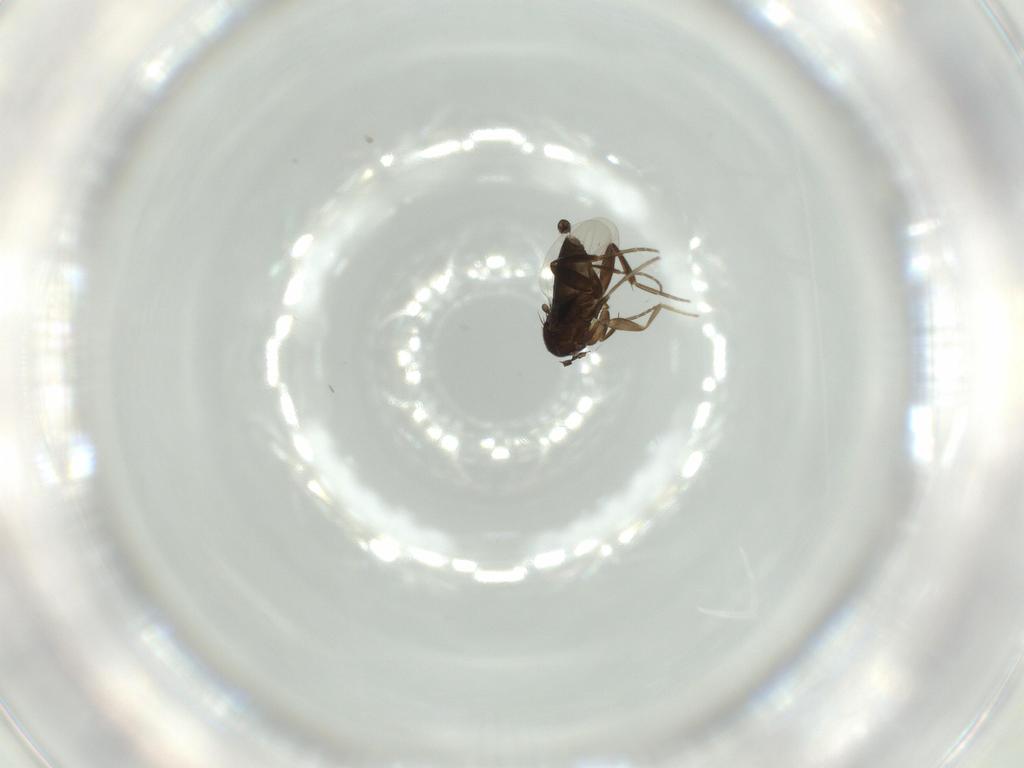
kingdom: Animalia
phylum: Arthropoda
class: Insecta
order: Diptera
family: Phoridae
